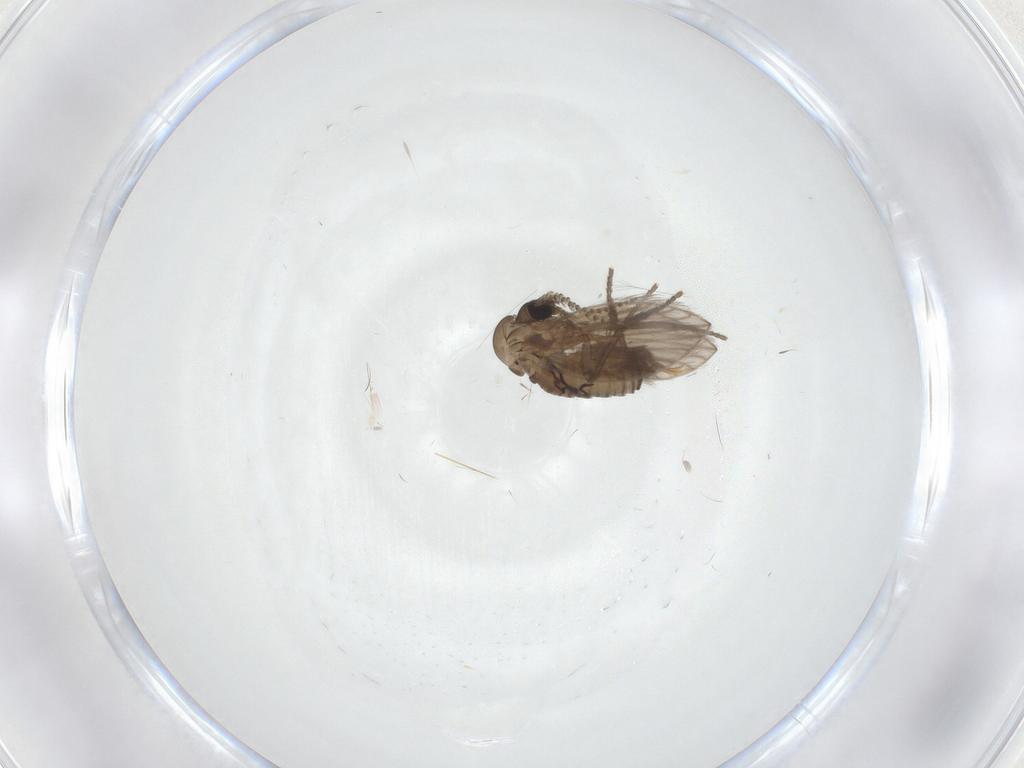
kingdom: Animalia
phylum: Arthropoda
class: Insecta
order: Diptera
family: Cecidomyiidae
